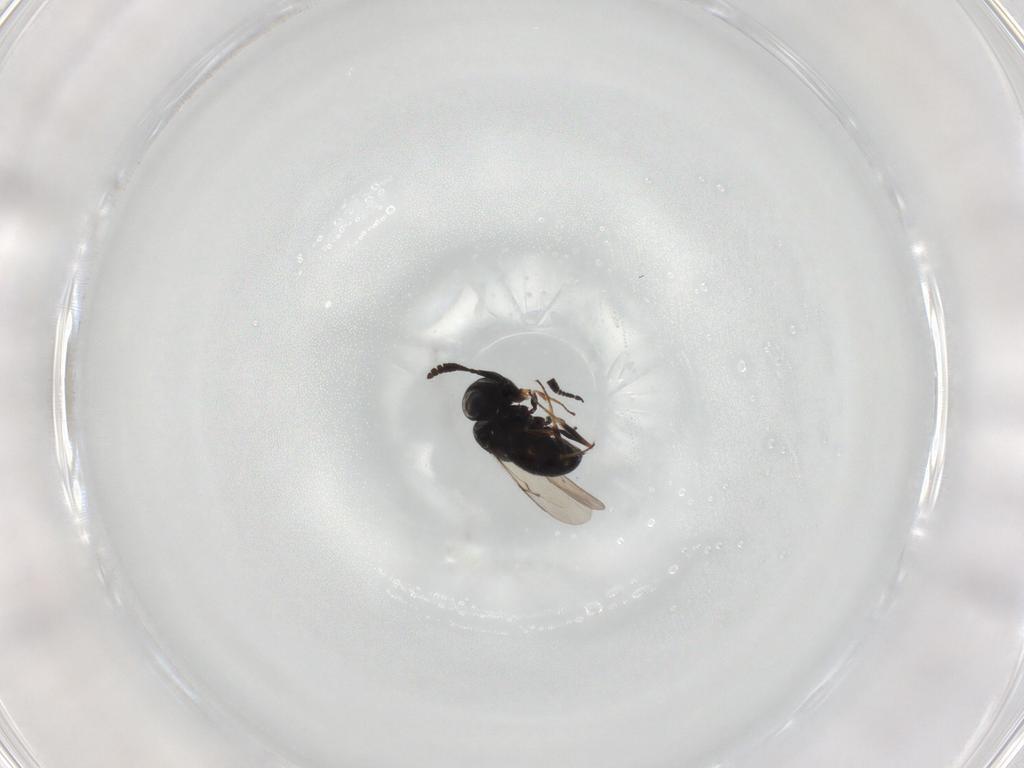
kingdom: Animalia
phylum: Arthropoda
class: Insecta
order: Hymenoptera
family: Scelionidae
